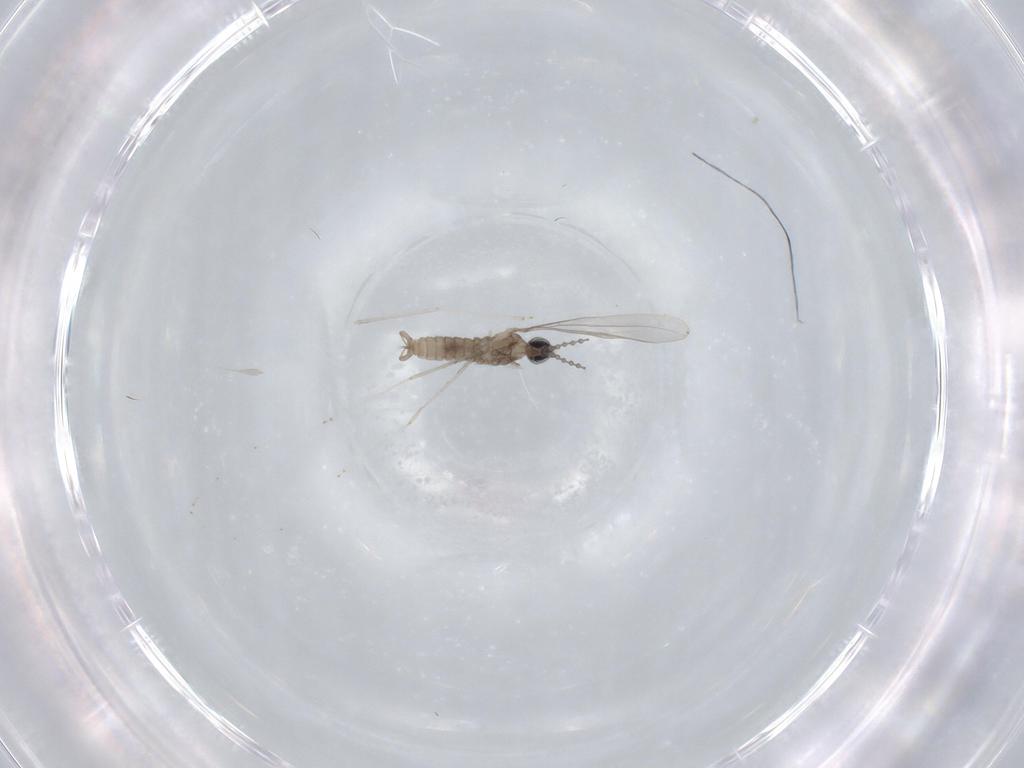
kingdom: Animalia
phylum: Arthropoda
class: Insecta
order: Diptera
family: Cecidomyiidae
